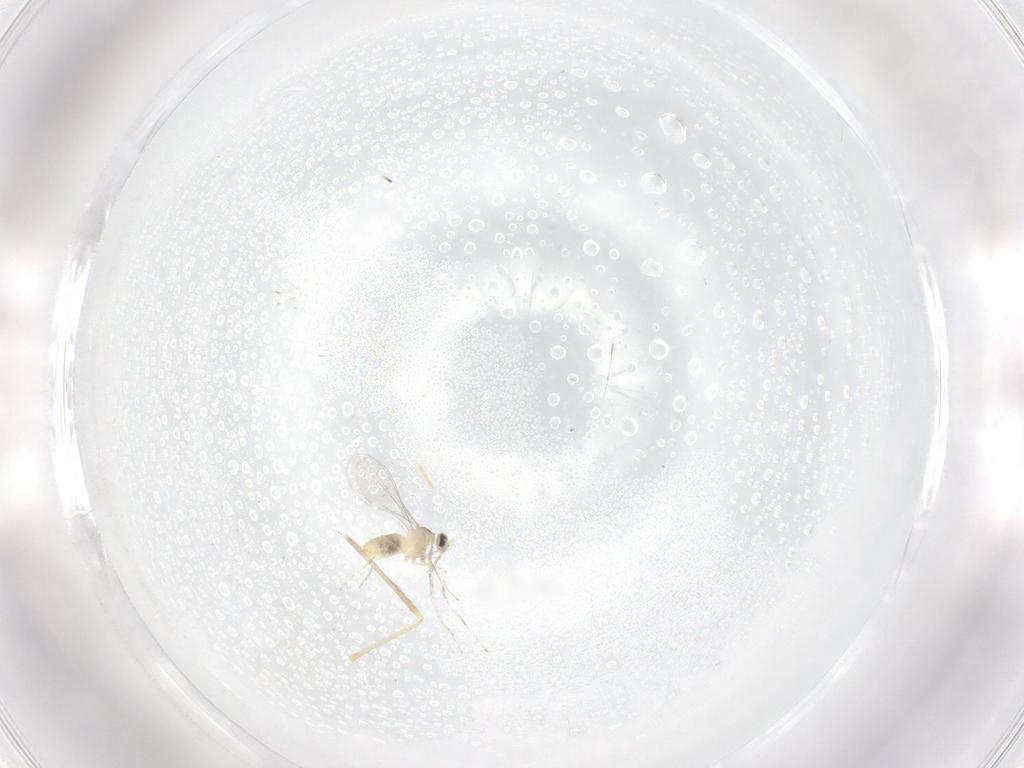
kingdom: Animalia
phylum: Arthropoda
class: Insecta
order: Diptera
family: Cecidomyiidae
